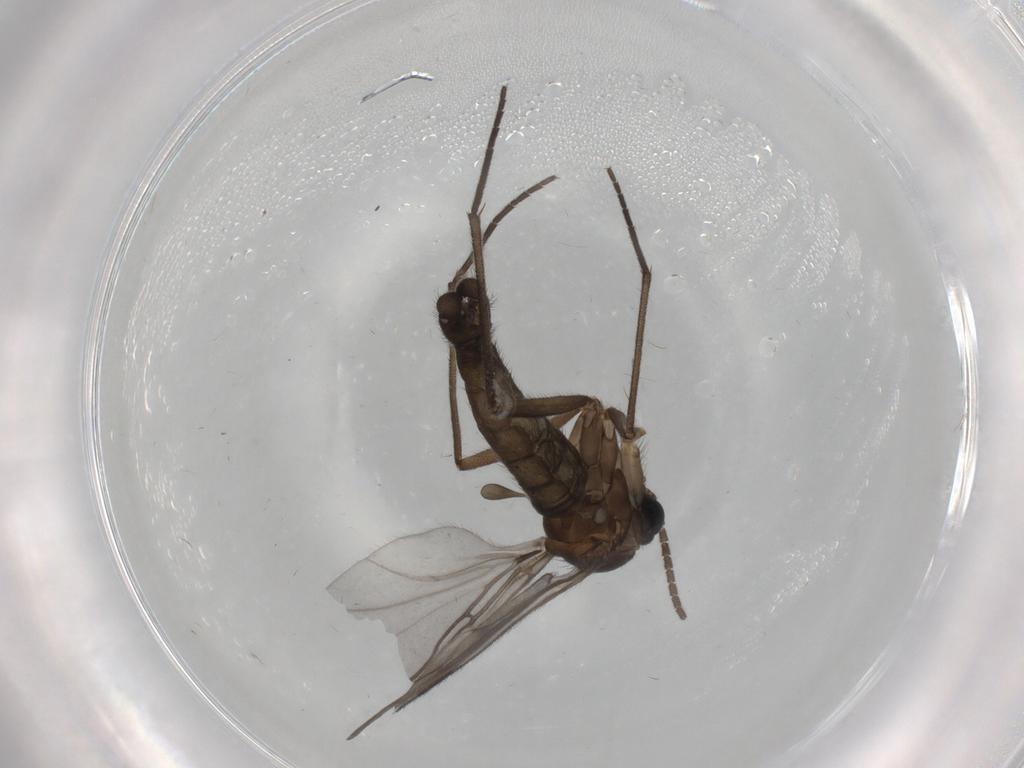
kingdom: Animalia
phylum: Arthropoda
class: Insecta
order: Diptera
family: Sciaridae
